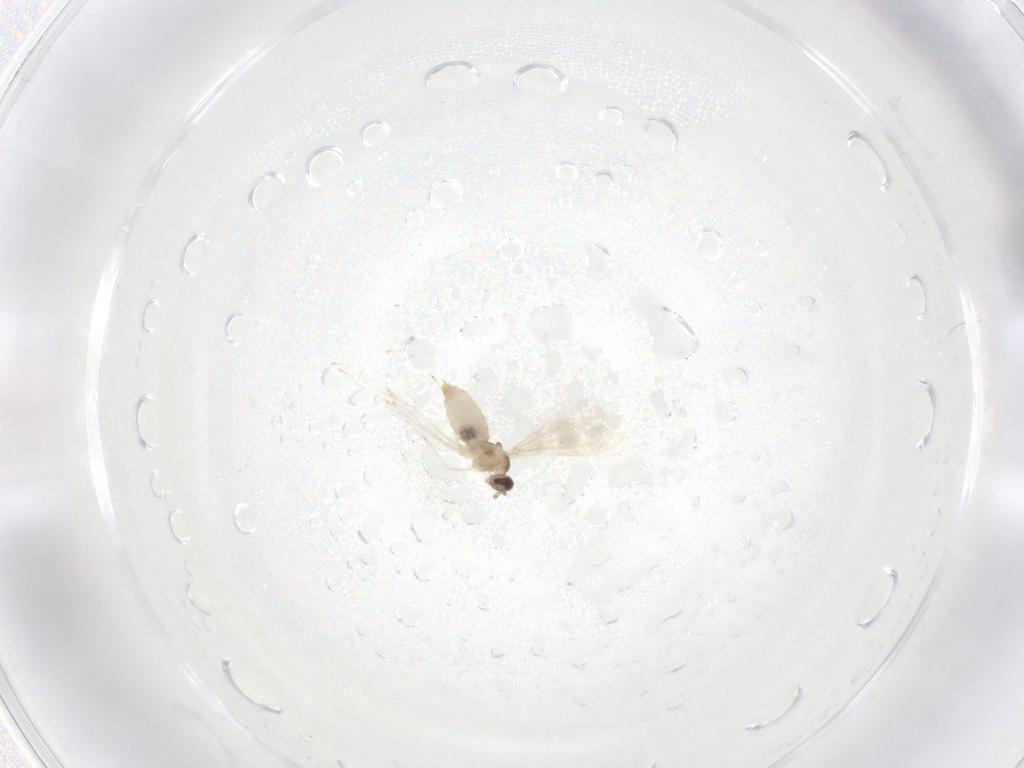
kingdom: Animalia
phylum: Arthropoda
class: Insecta
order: Diptera
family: Cecidomyiidae
